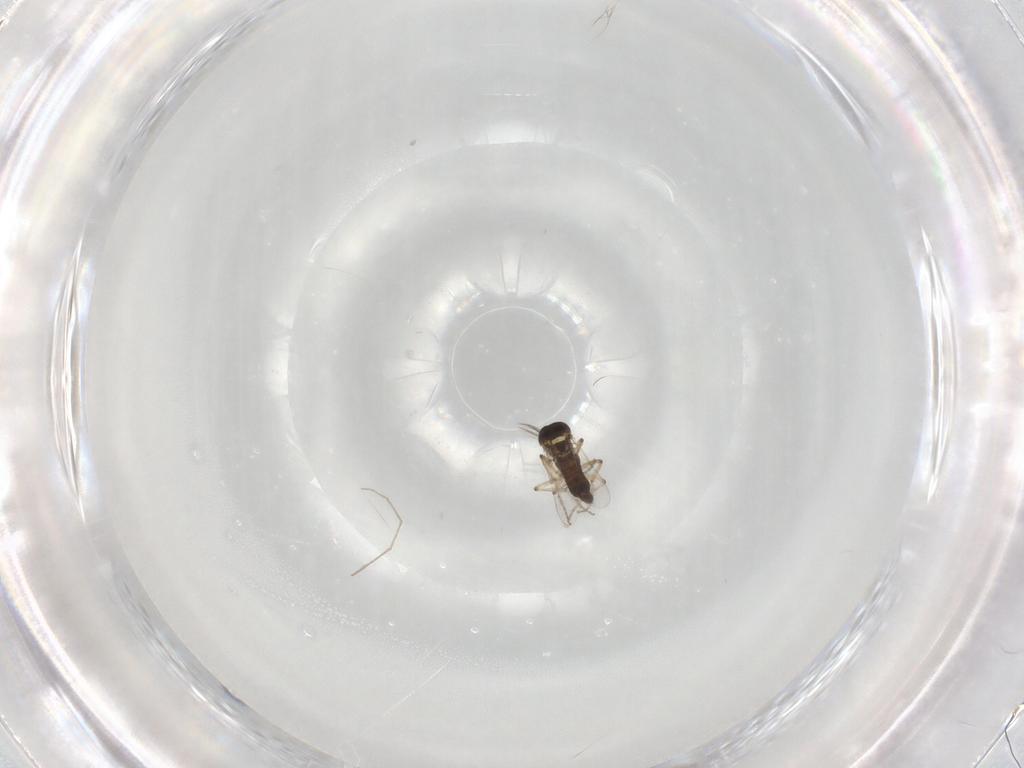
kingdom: Animalia
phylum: Arthropoda
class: Insecta
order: Diptera
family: Ceratopogonidae
